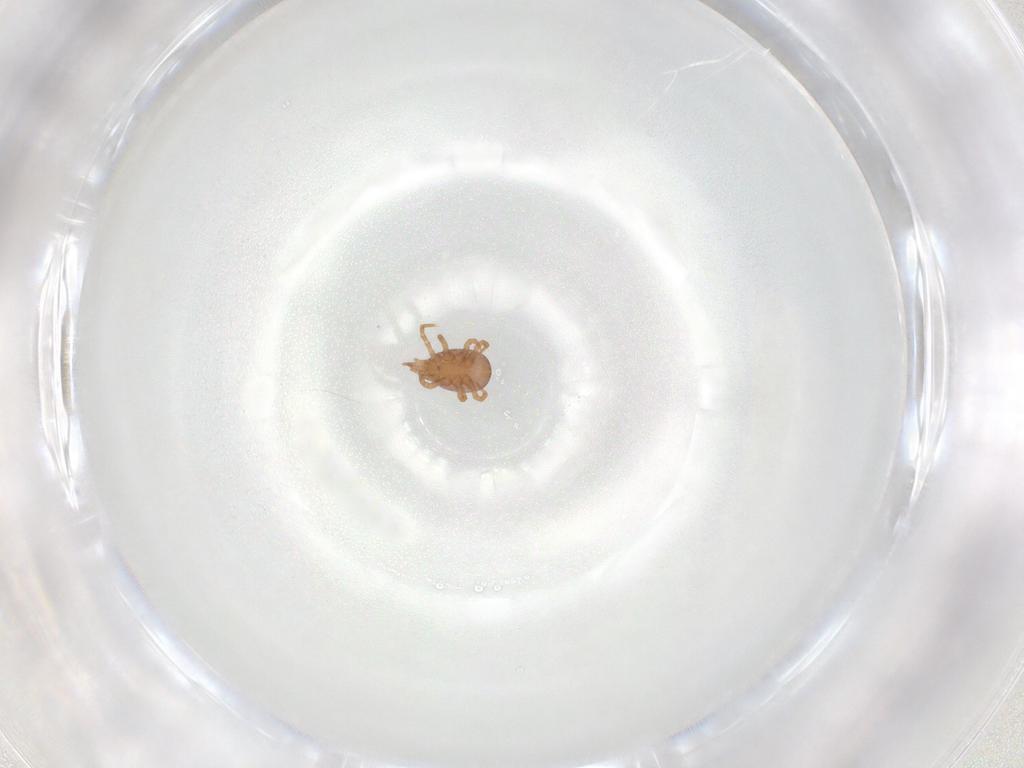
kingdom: Animalia
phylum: Arthropoda
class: Arachnida
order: Mesostigmata
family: Eviphididae
